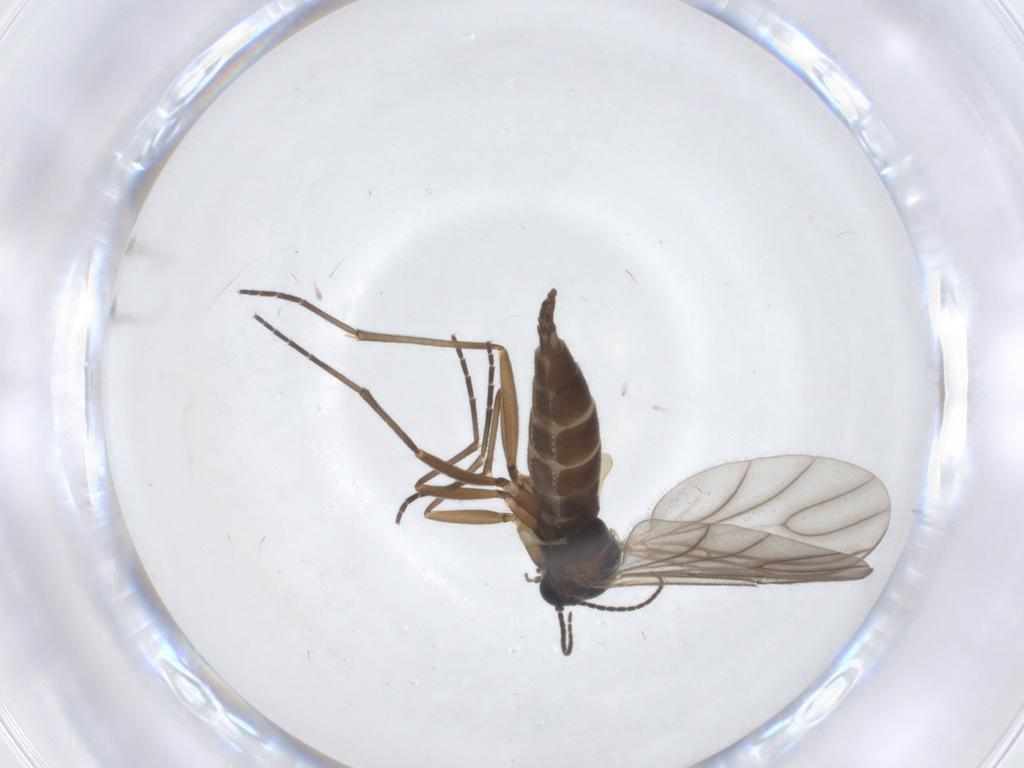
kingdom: Animalia
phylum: Arthropoda
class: Insecta
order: Diptera
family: Sciaridae
